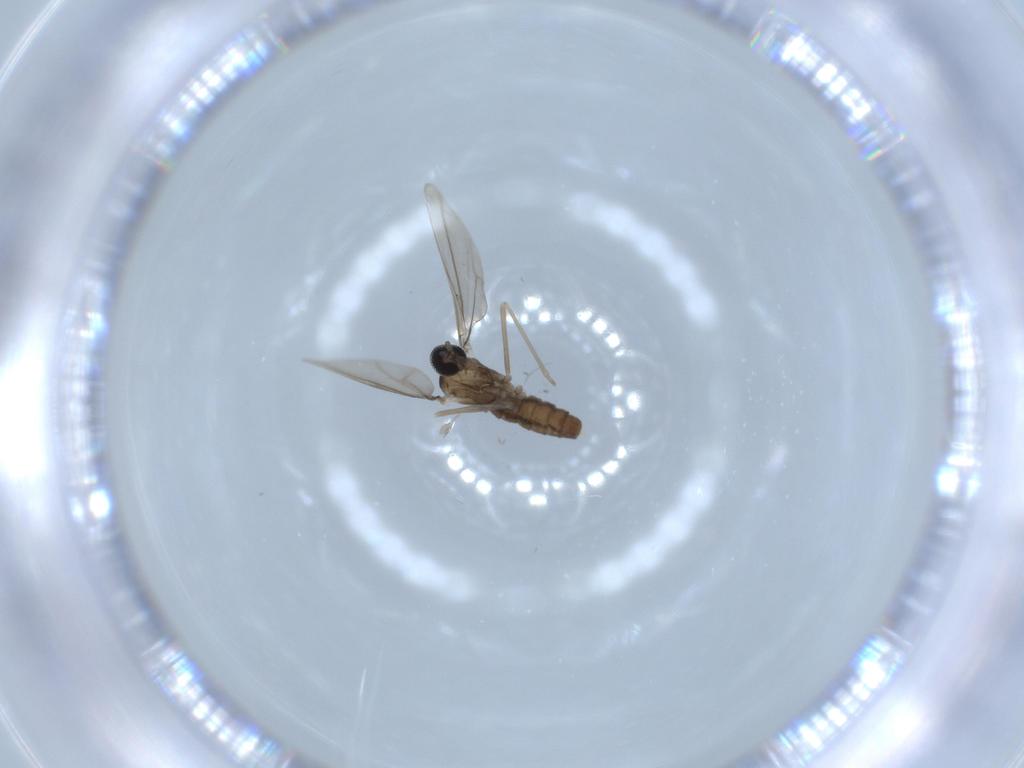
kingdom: Animalia
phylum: Arthropoda
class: Insecta
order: Diptera
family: Cecidomyiidae
